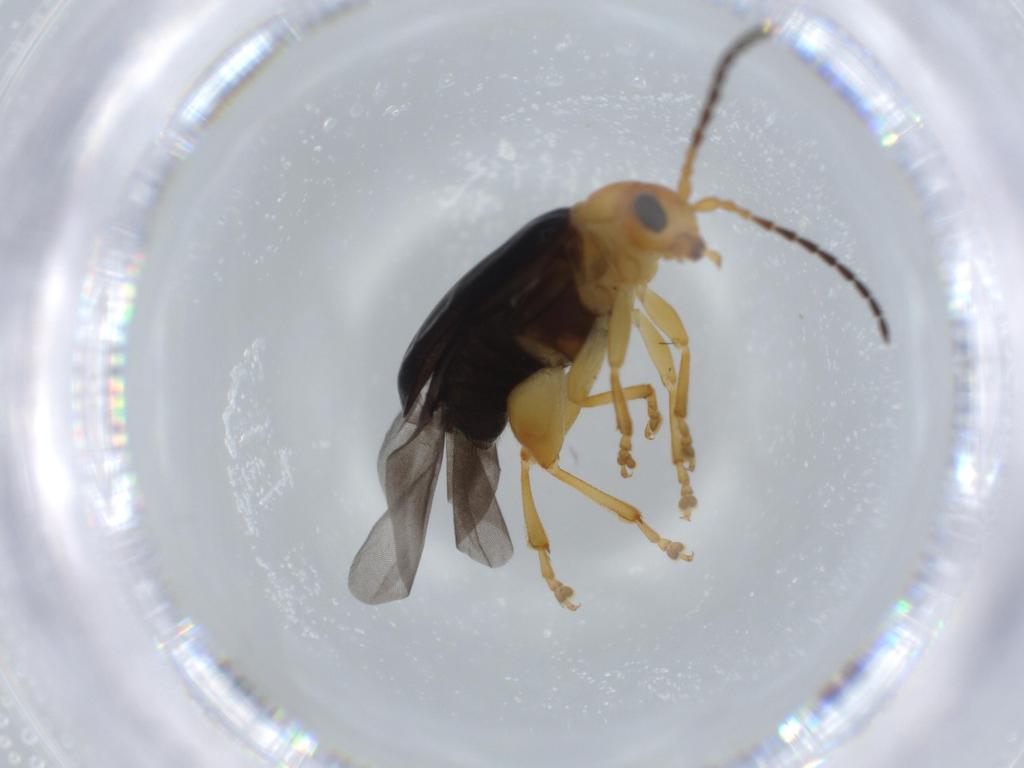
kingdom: Animalia
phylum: Arthropoda
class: Insecta
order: Coleoptera
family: Chrysomelidae
